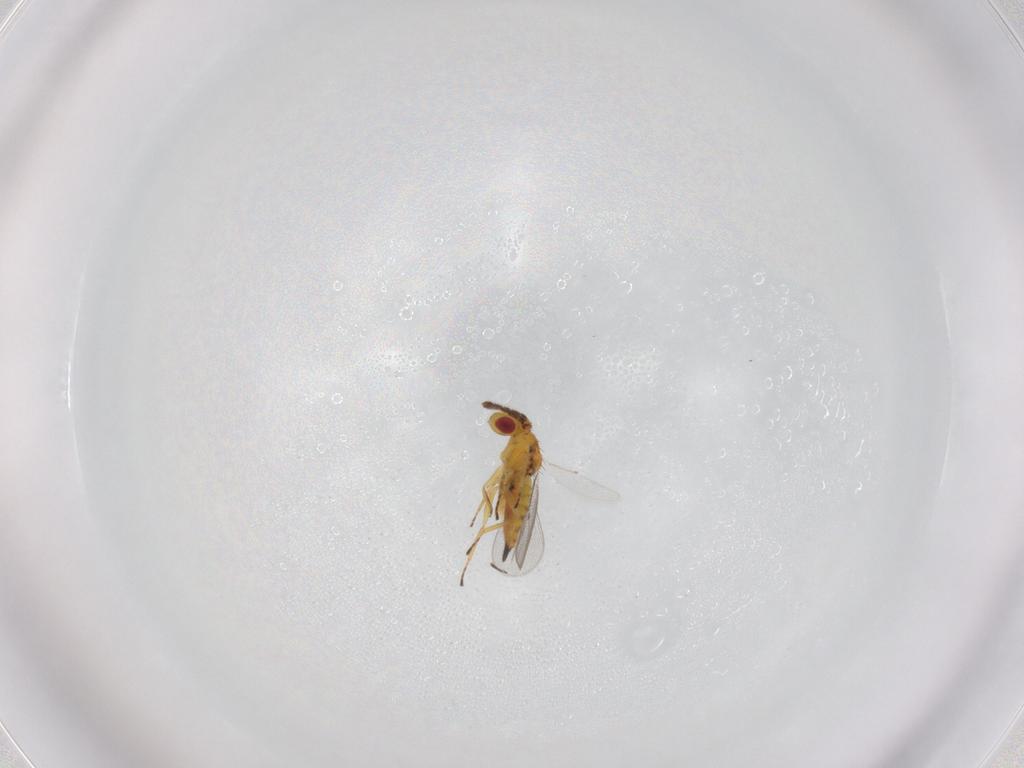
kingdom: Animalia
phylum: Arthropoda
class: Insecta
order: Hymenoptera
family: Eulophidae
